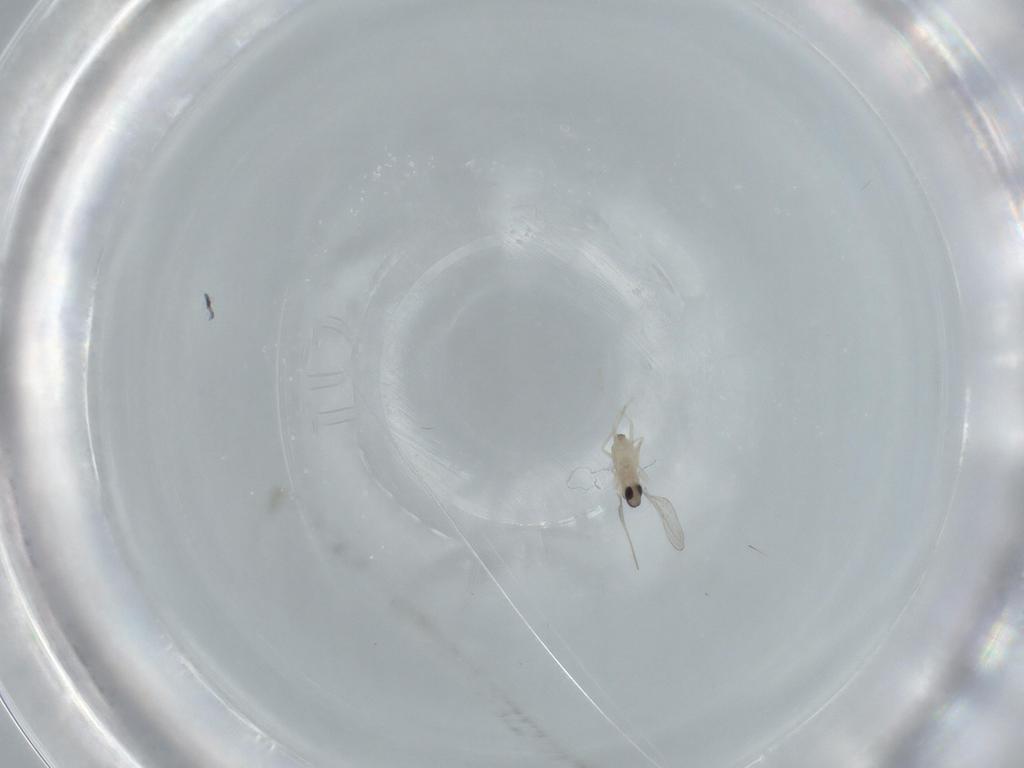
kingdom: Animalia
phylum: Arthropoda
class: Insecta
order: Diptera
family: Cecidomyiidae
